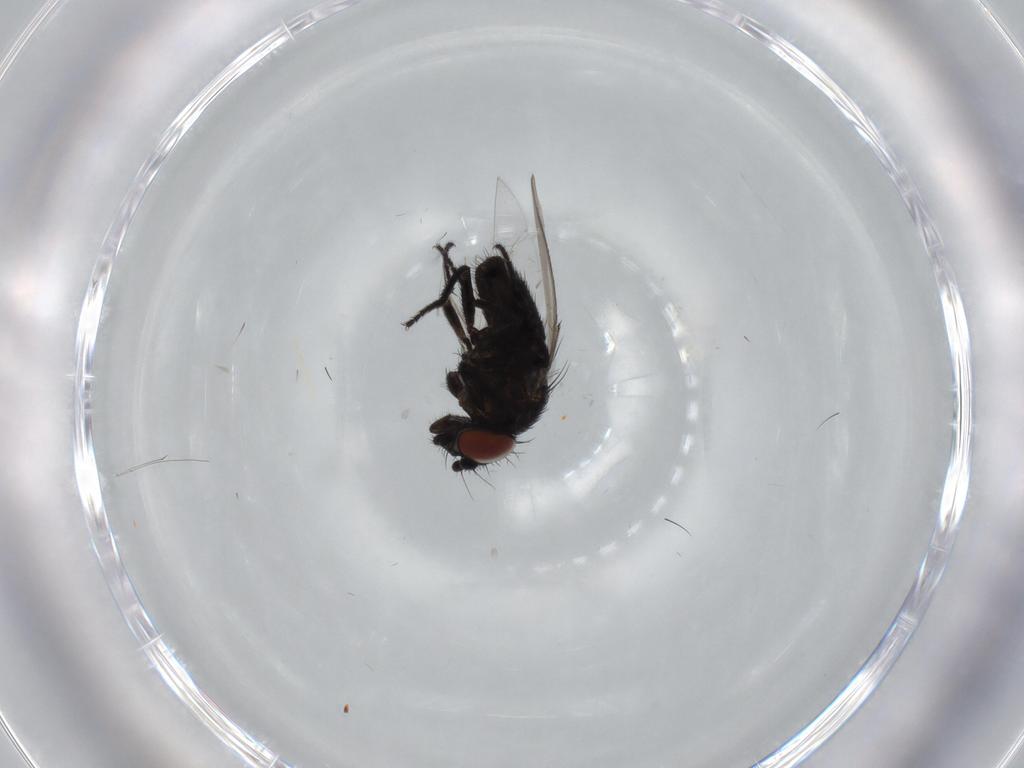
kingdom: Animalia
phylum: Arthropoda
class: Insecta
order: Diptera
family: Milichiidae
